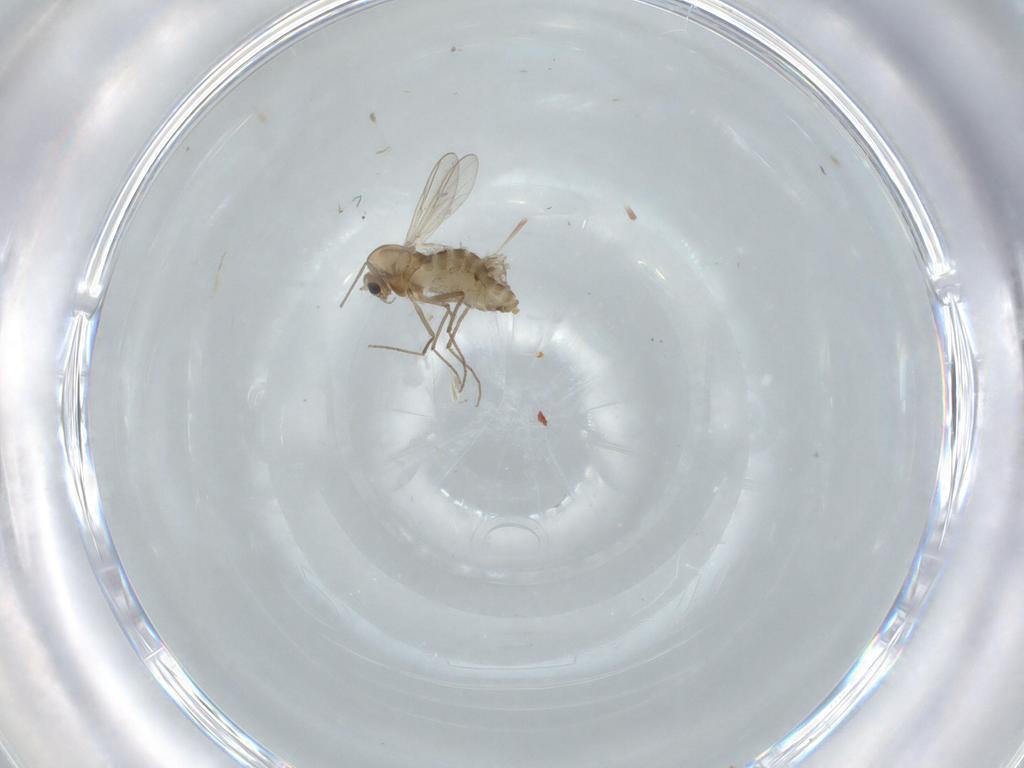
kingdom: Animalia
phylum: Arthropoda
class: Insecta
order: Diptera
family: Chironomidae
